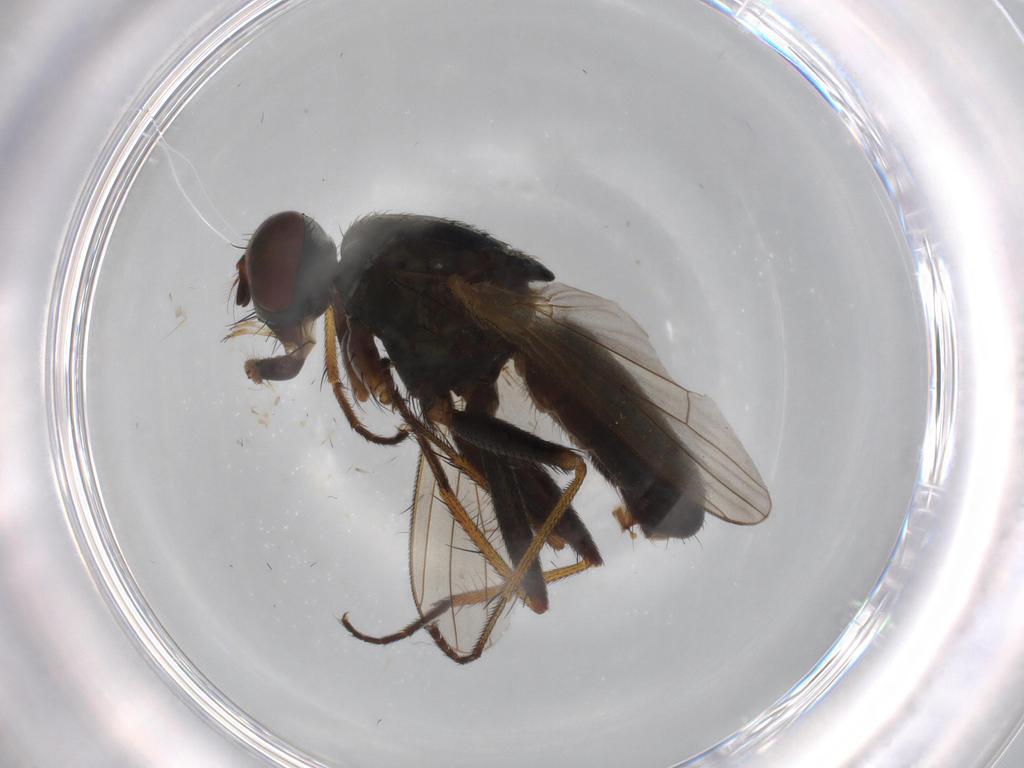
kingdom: Animalia
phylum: Arthropoda
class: Insecta
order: Diptera
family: Muscidae
